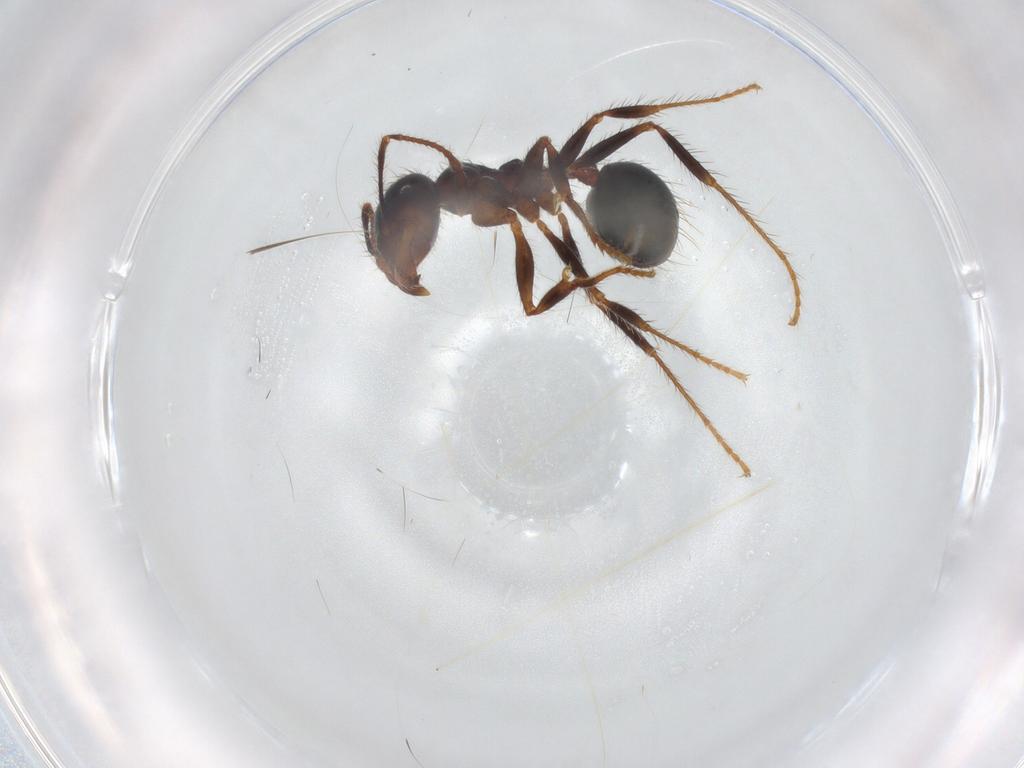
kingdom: Animalia
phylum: Arthropoda
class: Insecta
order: Hymenoptera
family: Formicidae
